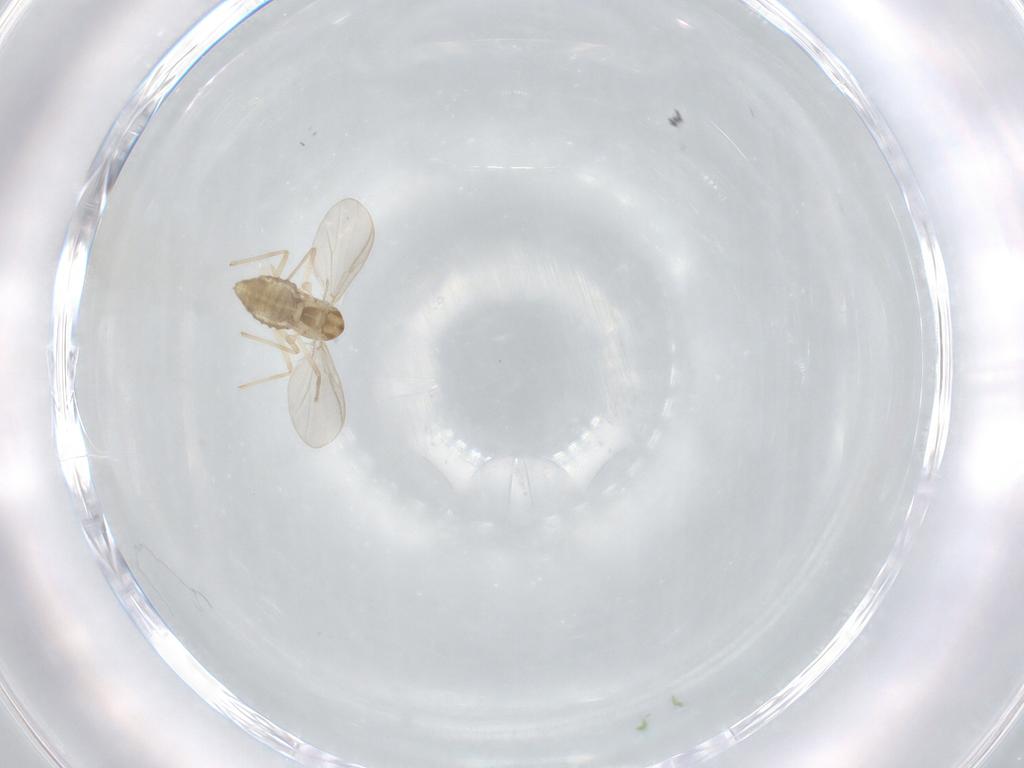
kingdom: Animalia
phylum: Arthropoda
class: Insecta
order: Diptera
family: Chironomidae
